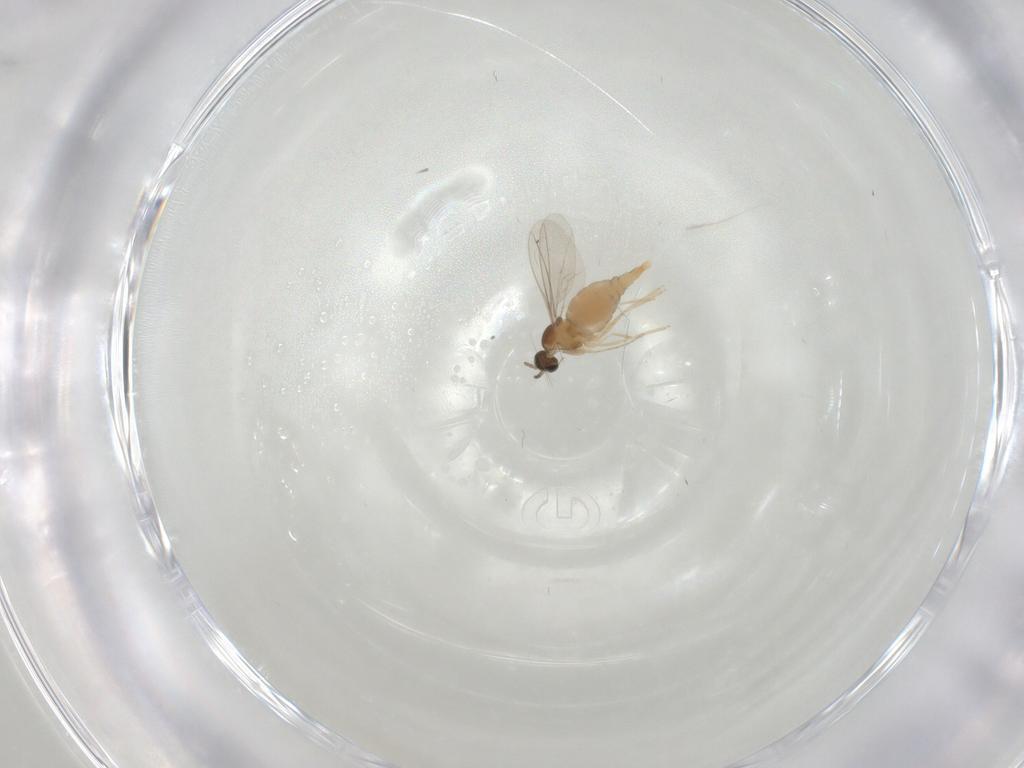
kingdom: Animalia
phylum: Arthropoda
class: Insecta
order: Diptera
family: Cecidomyiidae
